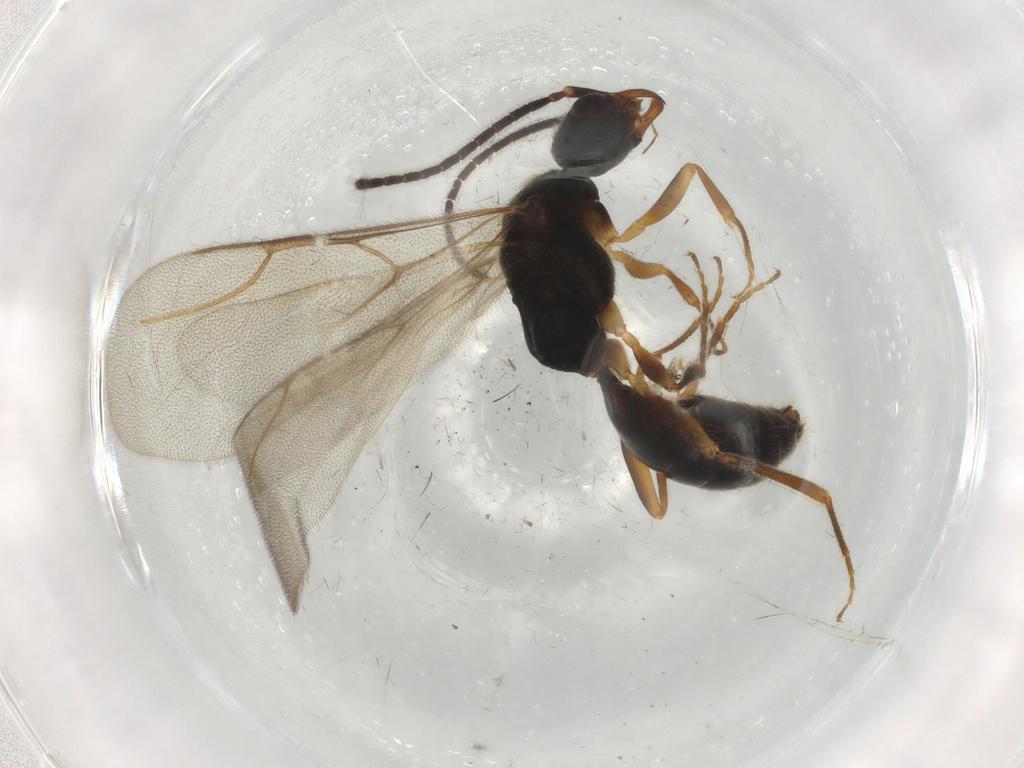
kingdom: Animalia
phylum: Arthropoda
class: Insecta
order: Hymenoptera
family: Bethylidae
